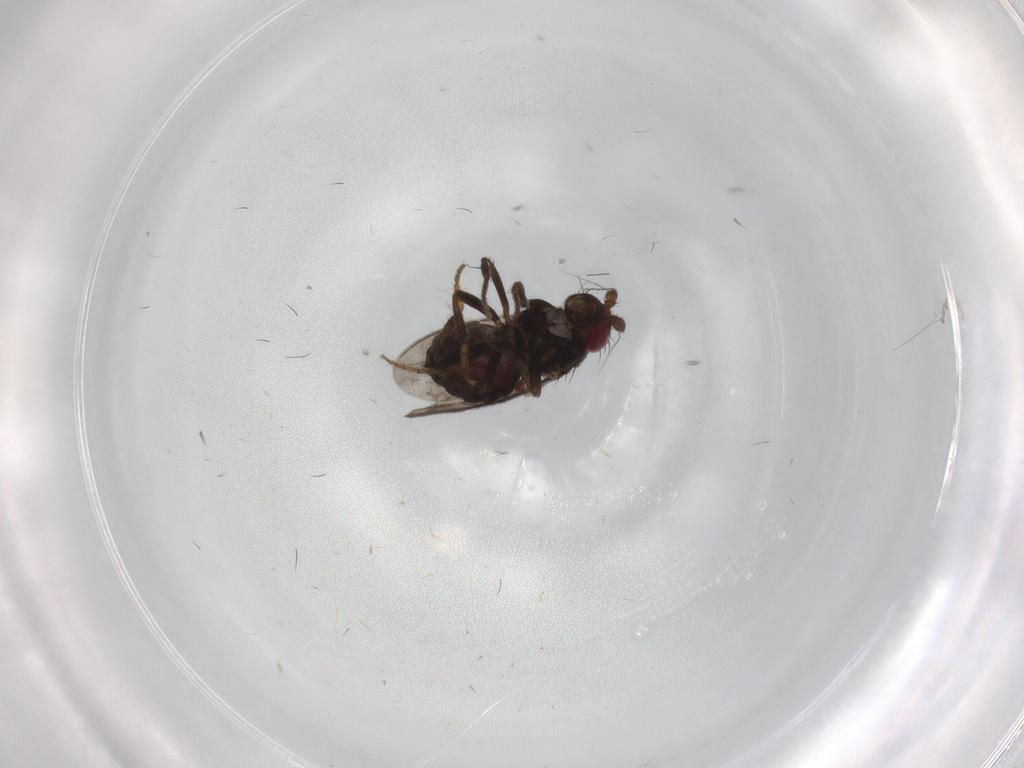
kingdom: Animalia
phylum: Arthropoda
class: Insecta
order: Diptera
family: Sphaeroceridae
